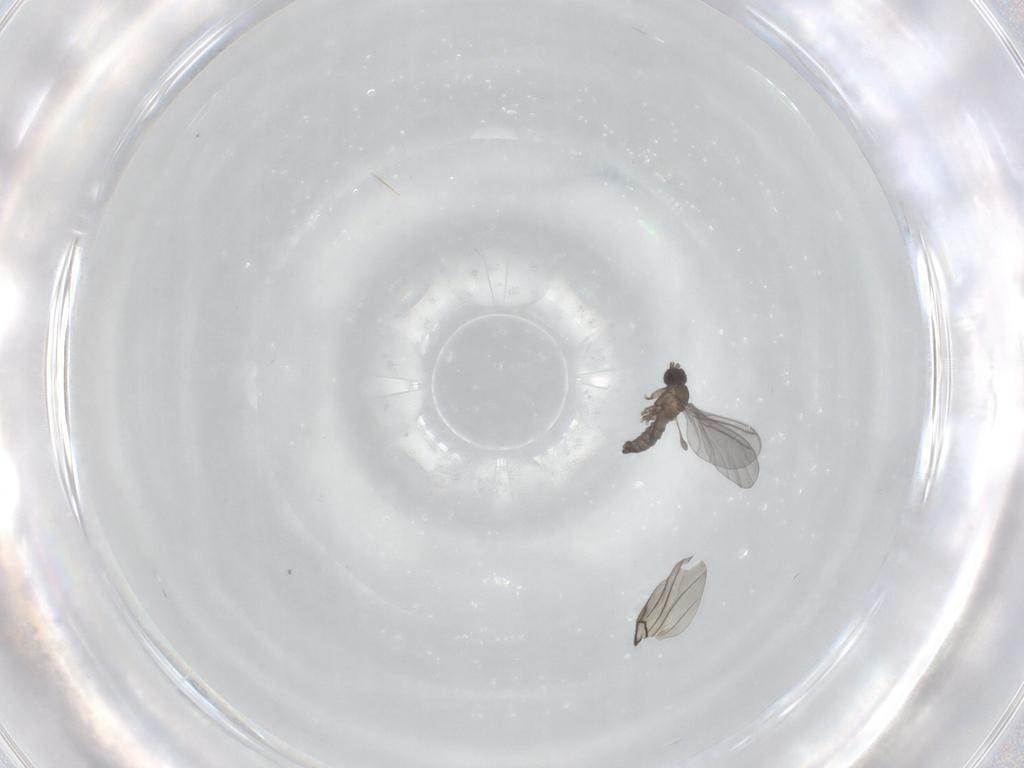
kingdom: Animalia
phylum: Arthropoda
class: Insecta
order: Diptera
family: Sciaridae
